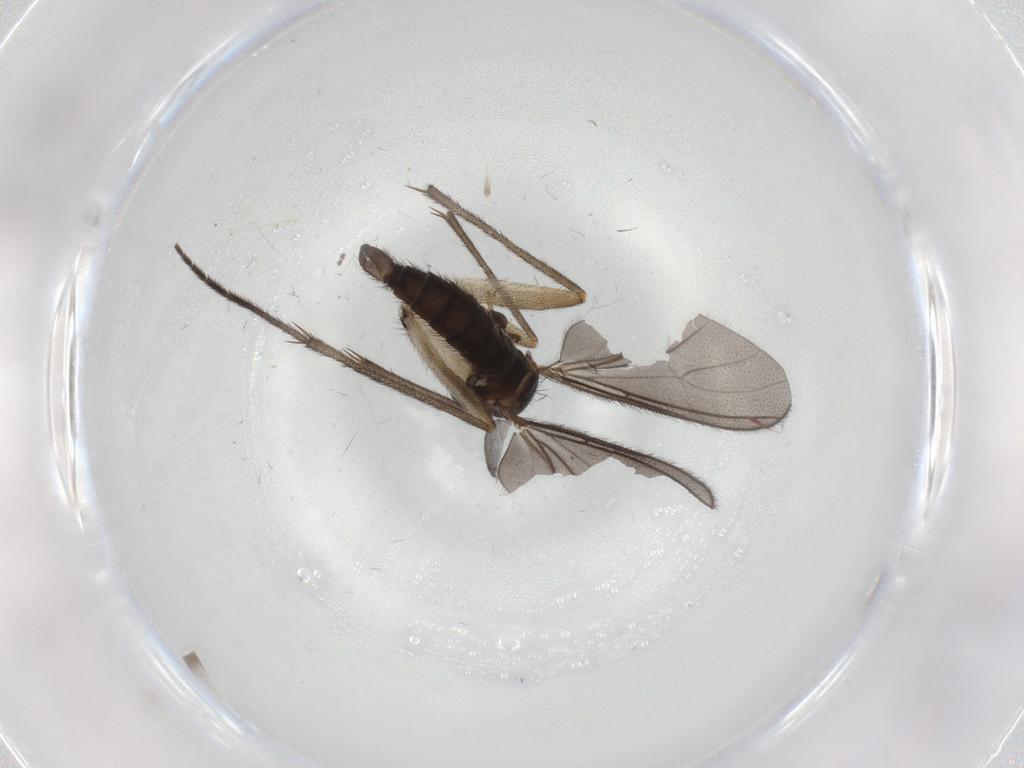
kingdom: Animalia
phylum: Arthropoda
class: Insecta
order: Diptera
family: Sciaridae
